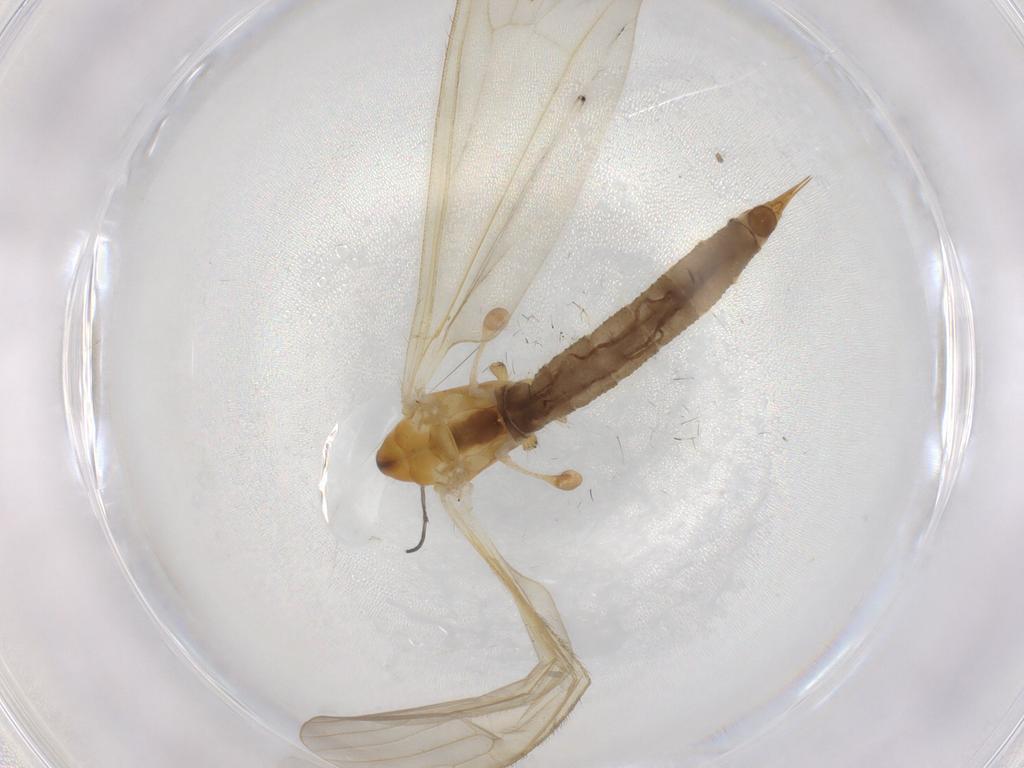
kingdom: Animalia
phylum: Arthropoda
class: Insecta
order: Diptera
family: Limoniidae
